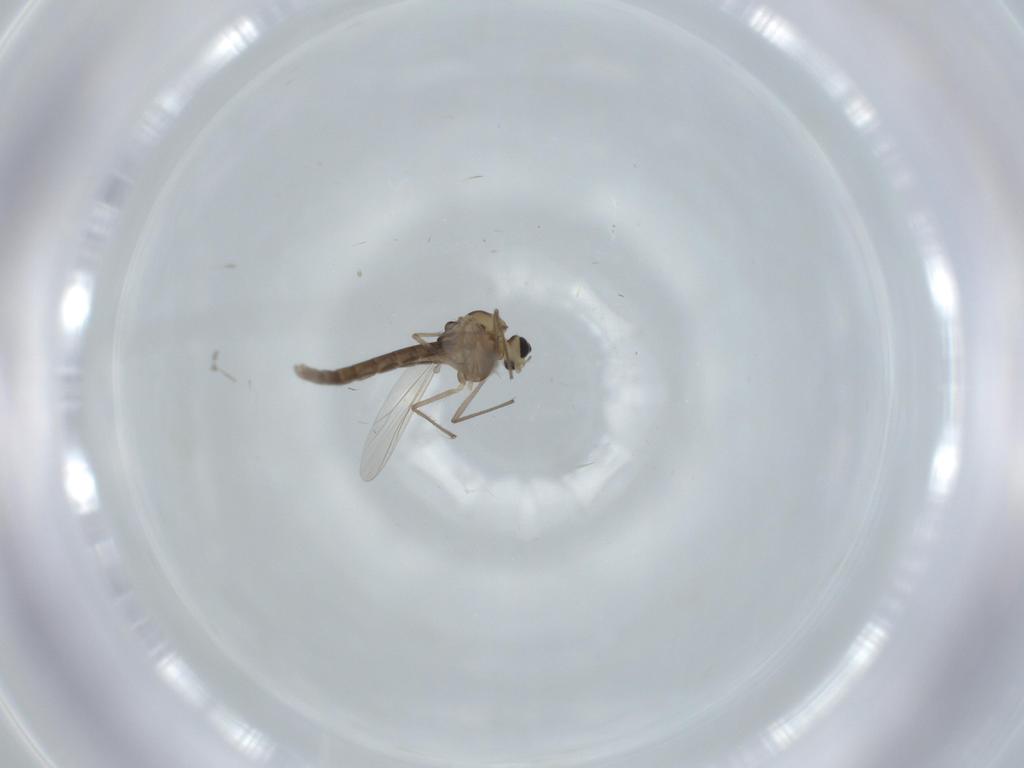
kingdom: Animalia
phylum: Arthropoda
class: Insecta
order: Diptera
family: Chironomidae
